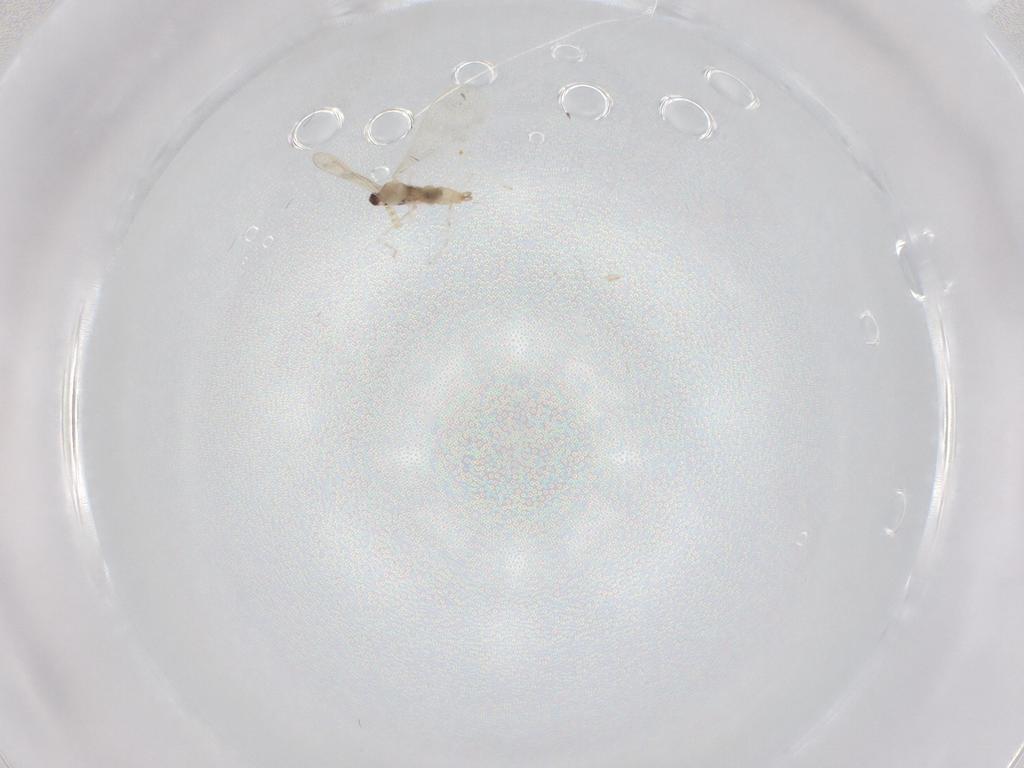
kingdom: Animalia
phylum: Arthropoda
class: Insecta
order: Diptera
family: Cecidomyiidae
